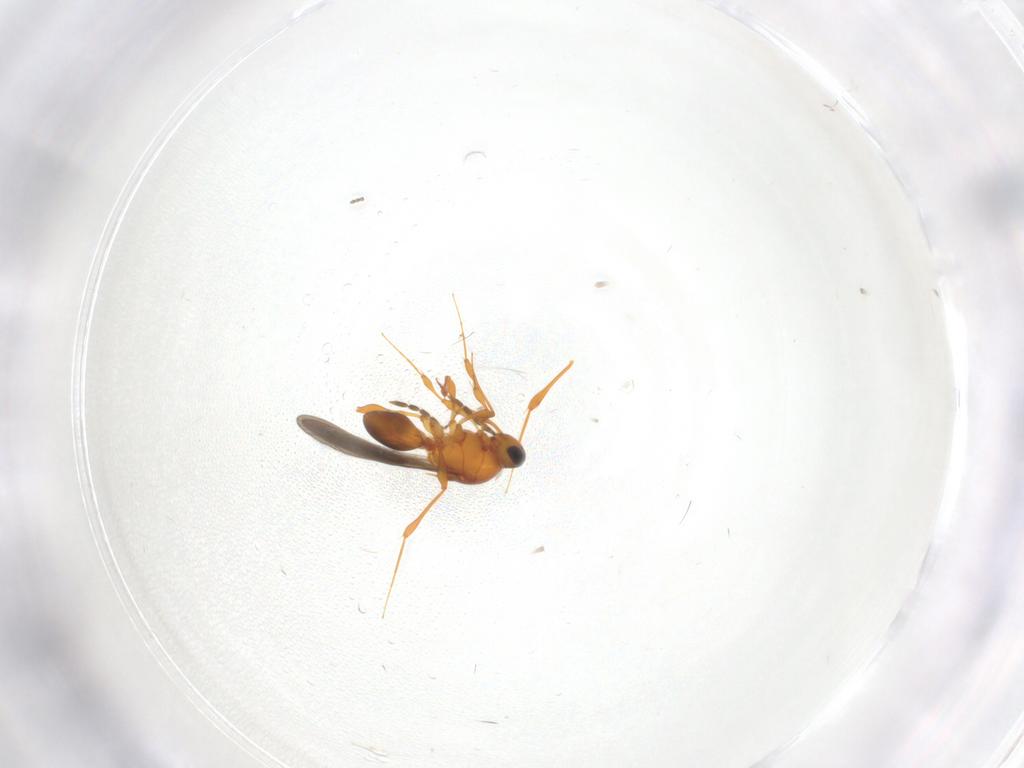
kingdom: Animalia
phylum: Arthropoda
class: Insecta
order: Hymenoptera
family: Platygastridae
